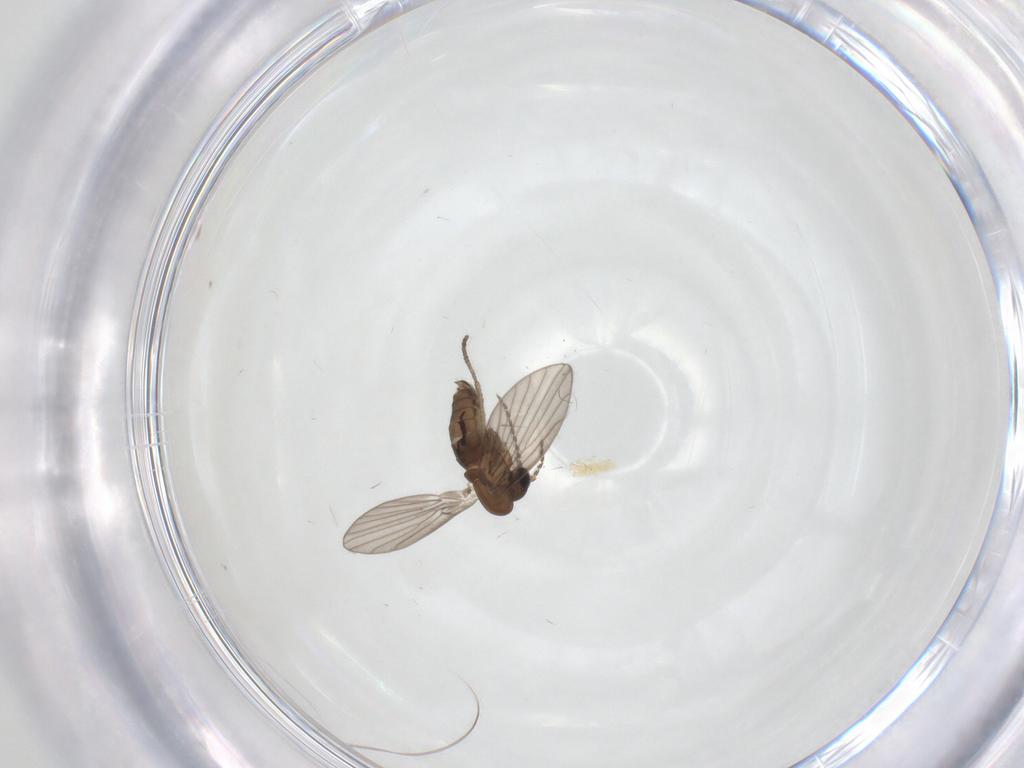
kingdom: Animalia
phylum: Arthropoda
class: Insecta
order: Diptera
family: Psychodidae
